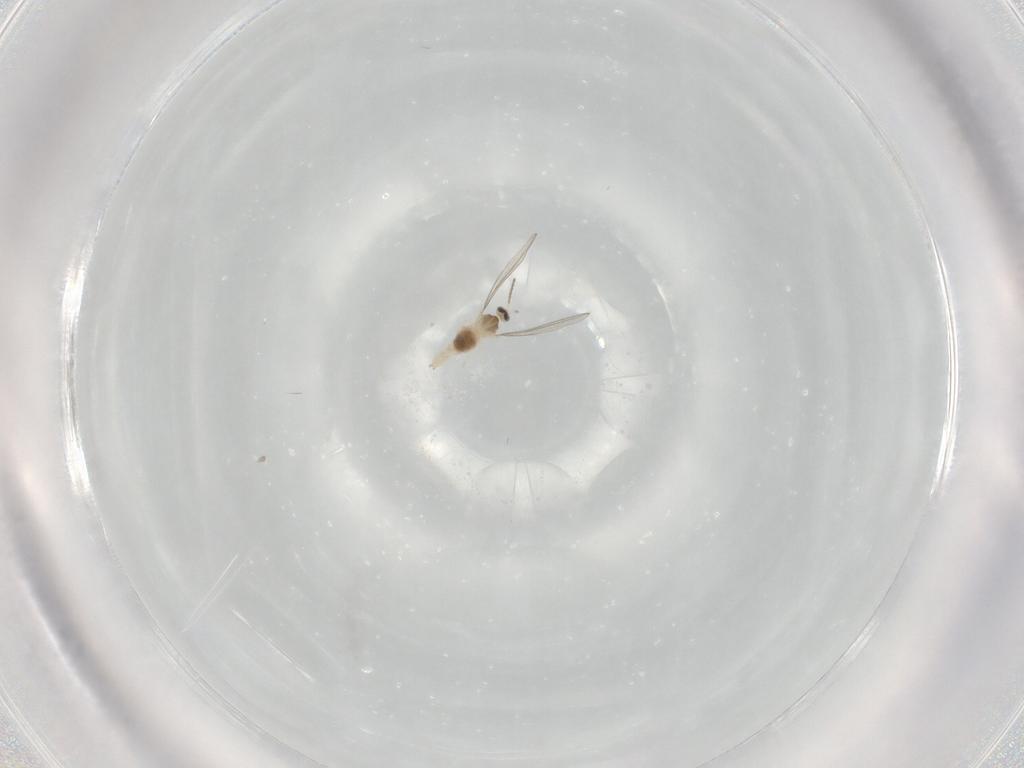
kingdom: Animalia
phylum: Arthropoda
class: Insecta
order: Diptera
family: Cecidomyiidae
